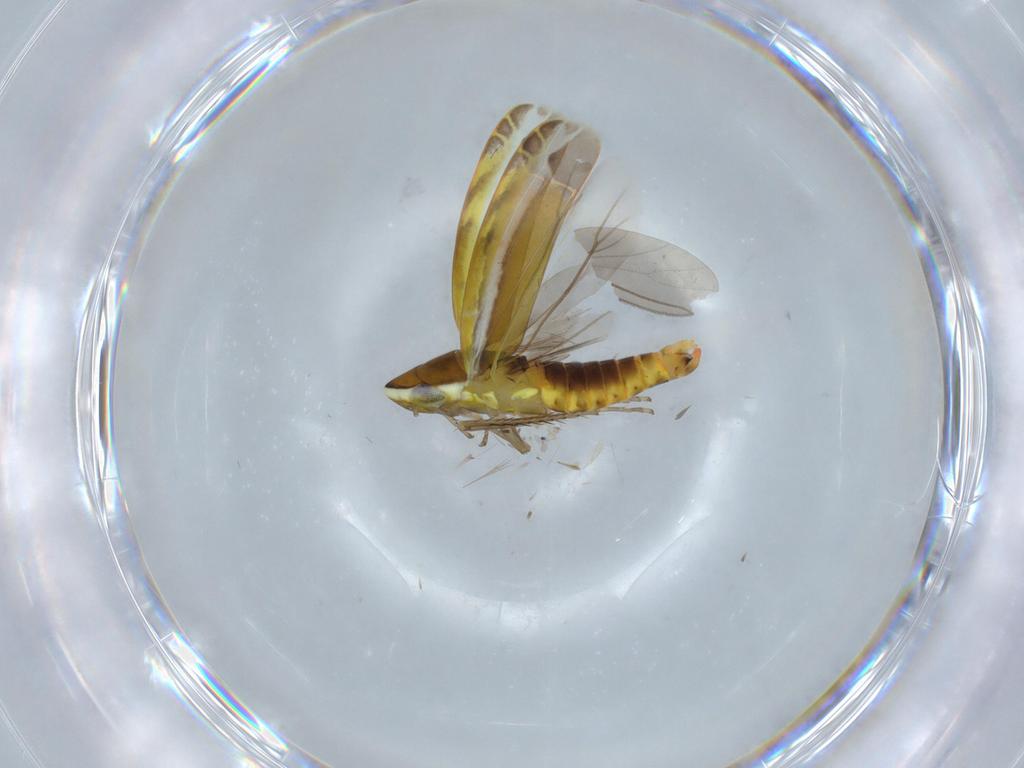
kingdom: Animalia
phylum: Arthropoda
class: Insecta
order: Hemiptera
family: Cicadellidae
